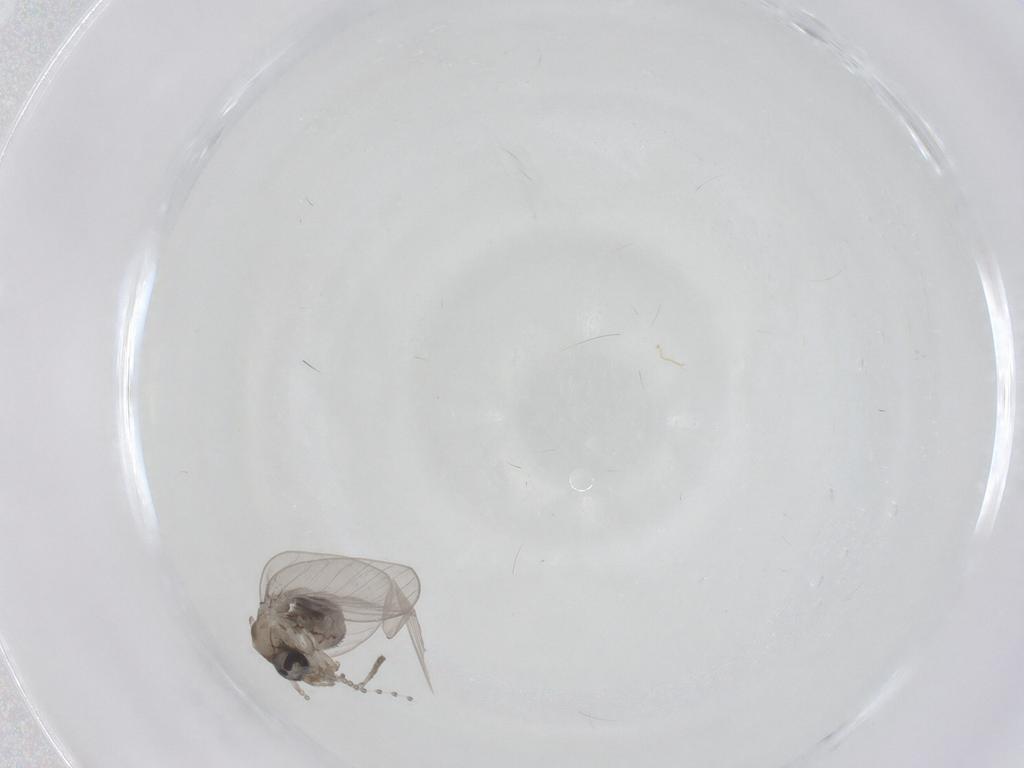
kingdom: Animalia
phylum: Arthropoda
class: Insecta
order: Diptera
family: Psychodidae
